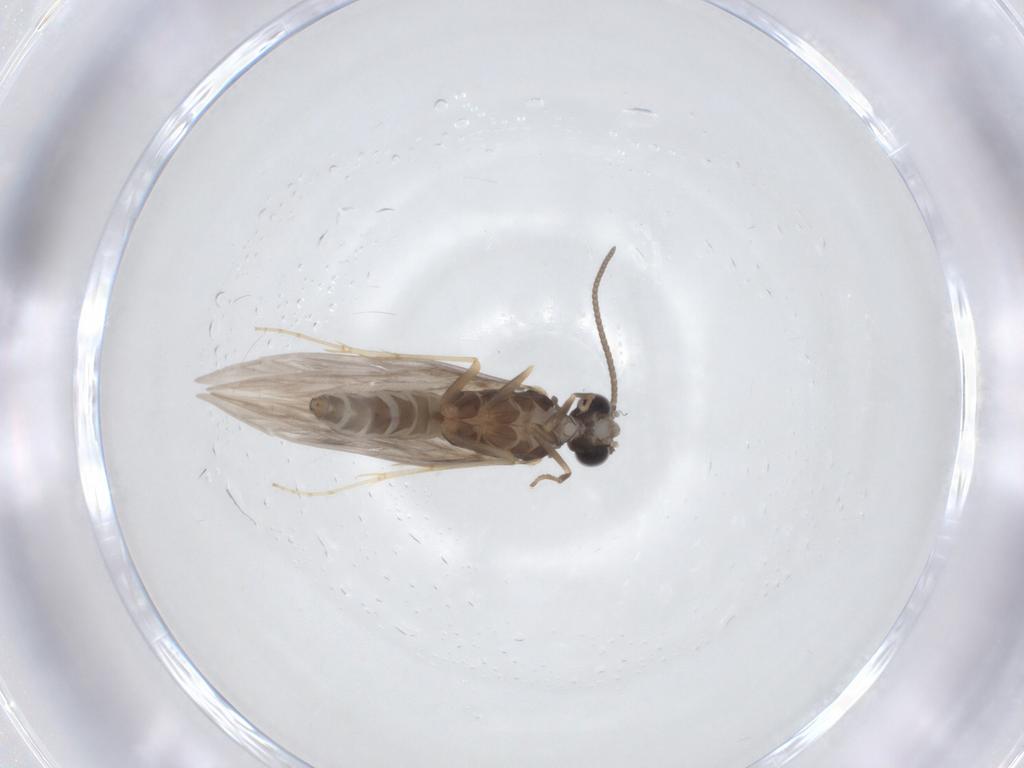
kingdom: Animalia
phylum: Arthropoda
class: Insecta
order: Trichoptera
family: Hydroptilidae
